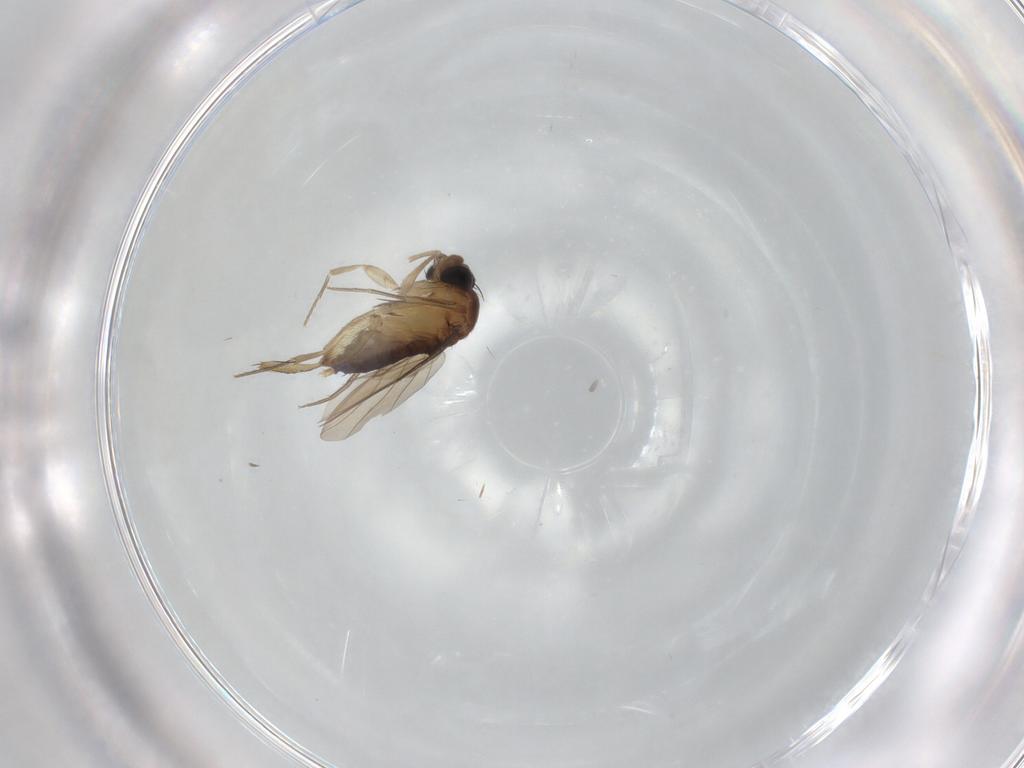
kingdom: Animalia
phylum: Arthropoda
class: Insecta
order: Diptera
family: Phoridae
